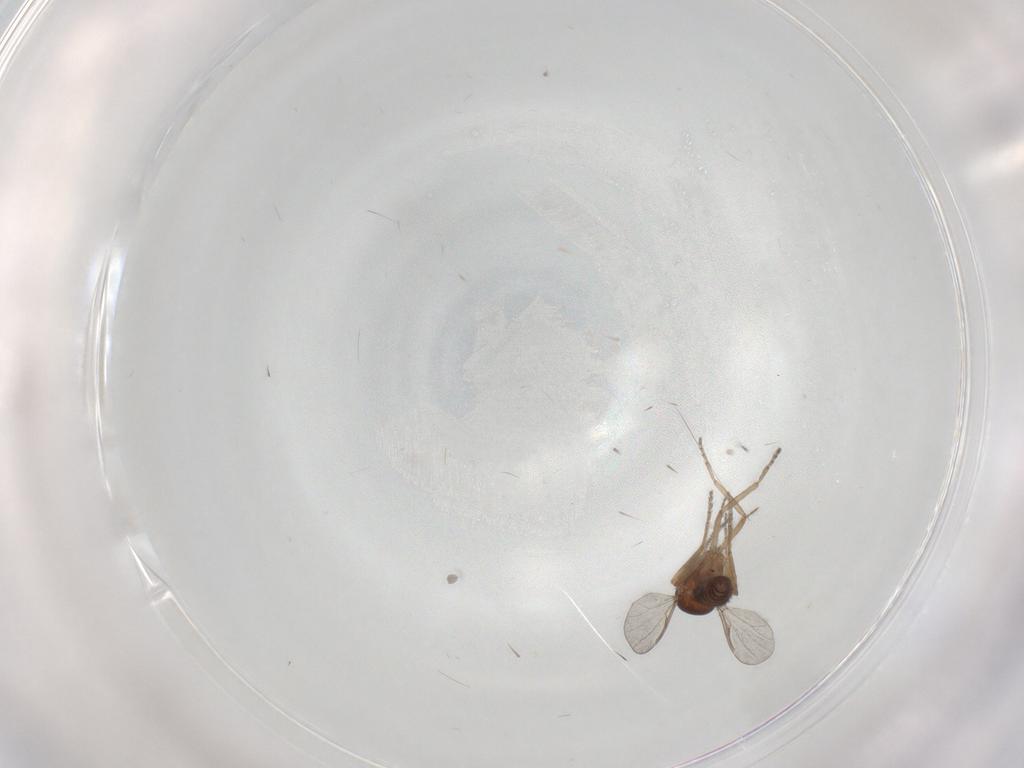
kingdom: Animalia
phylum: Arthropoda
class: Insecta
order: Diptera
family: Ceratopogonidae
